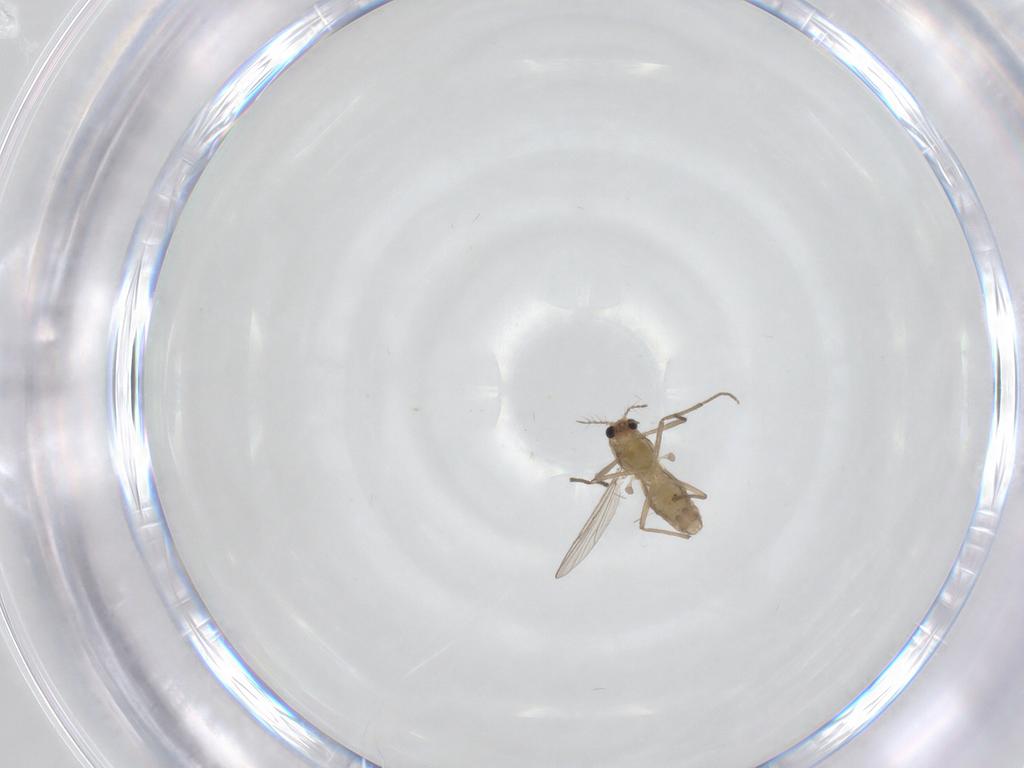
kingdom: Animalia
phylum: Arthropoda
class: Insecta
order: Diptera
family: Chironomidae
